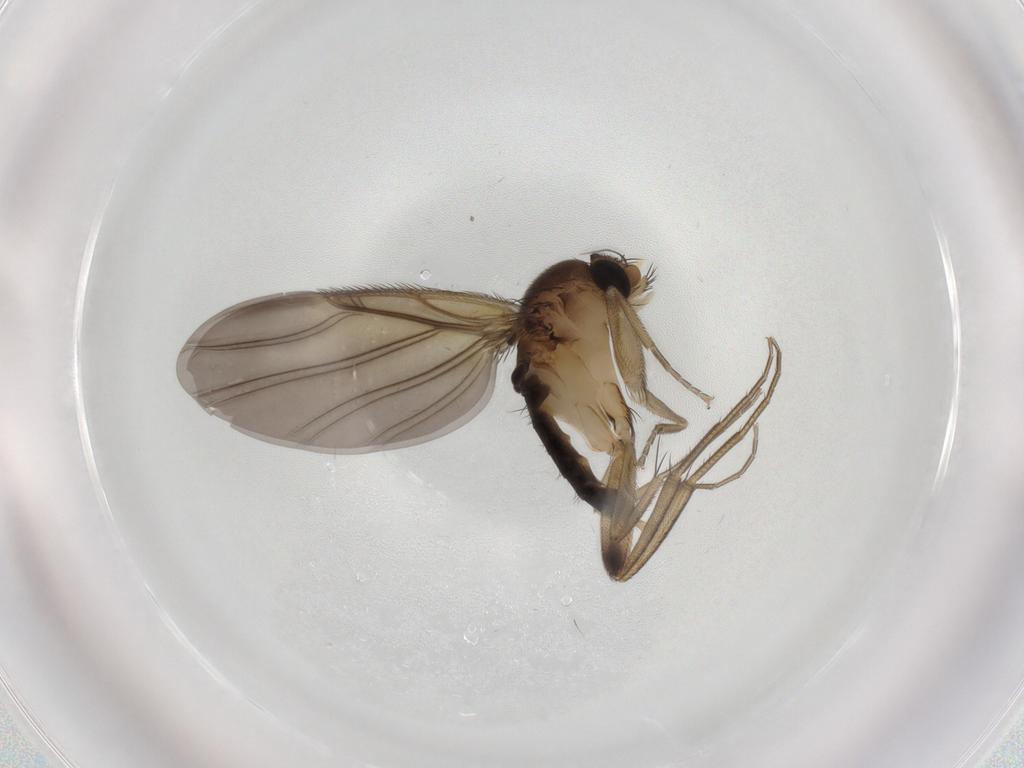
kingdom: Animalia
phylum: Arthropoda
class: Insecta
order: Diptera
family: Phoridae
